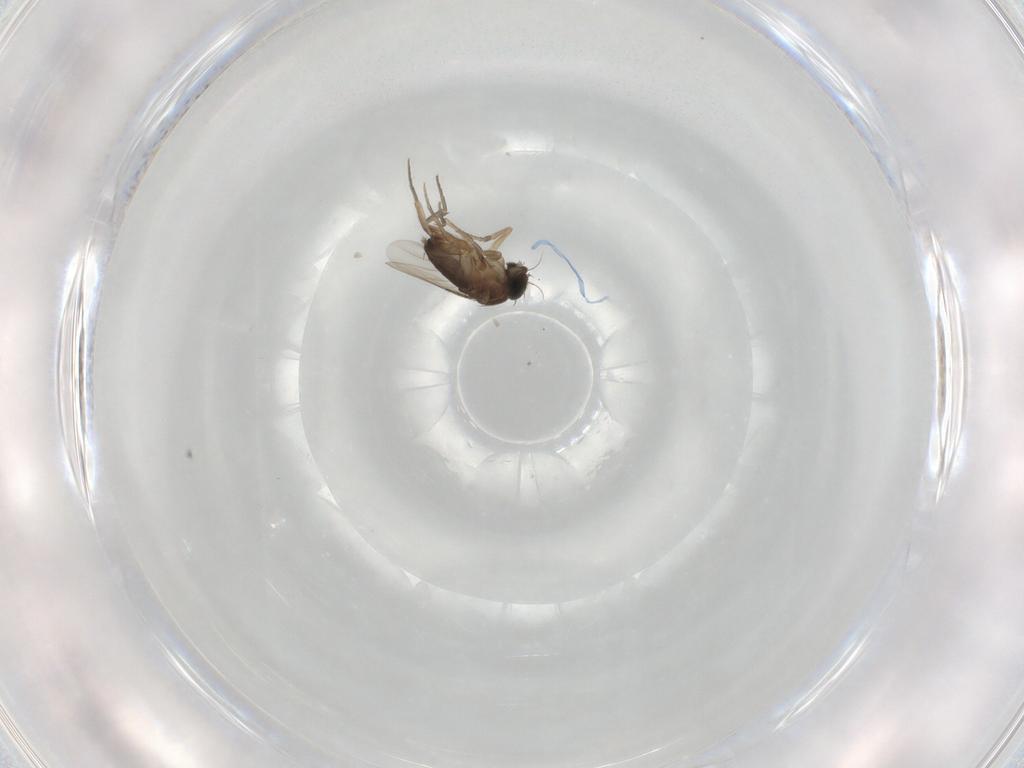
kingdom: Animalia
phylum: Arthropoda
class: Insecta
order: Diptera
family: Phoridae
